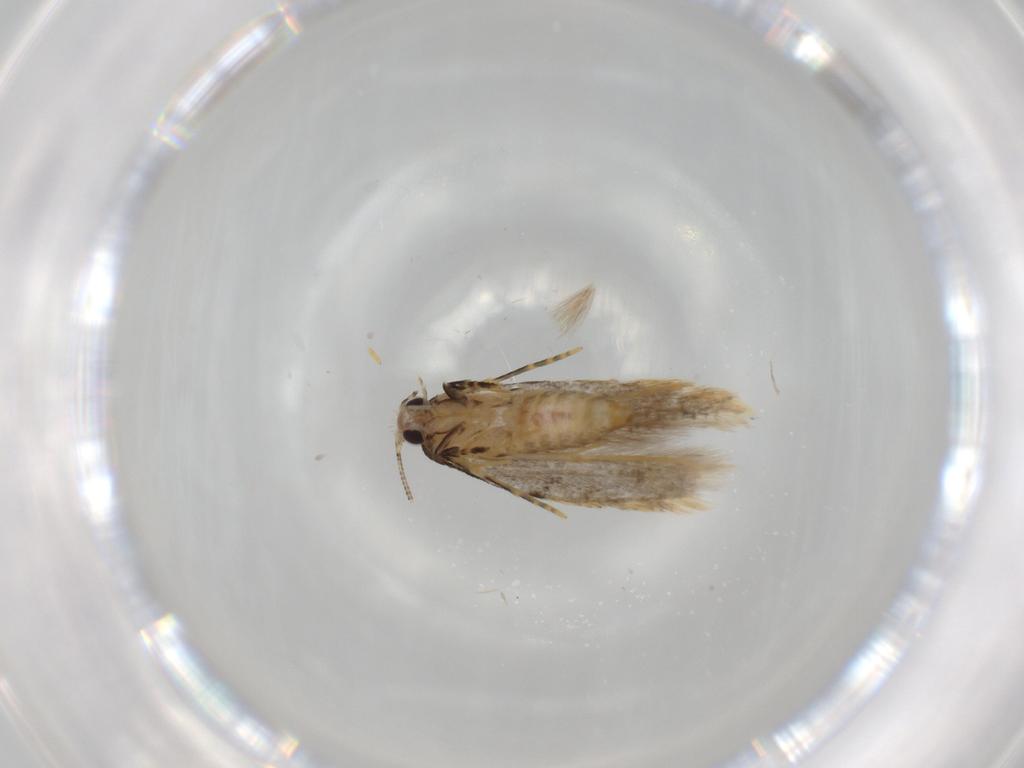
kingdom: Animalia
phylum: Arthropoda
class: Insecta
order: Lepidoptera
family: Tineidae
